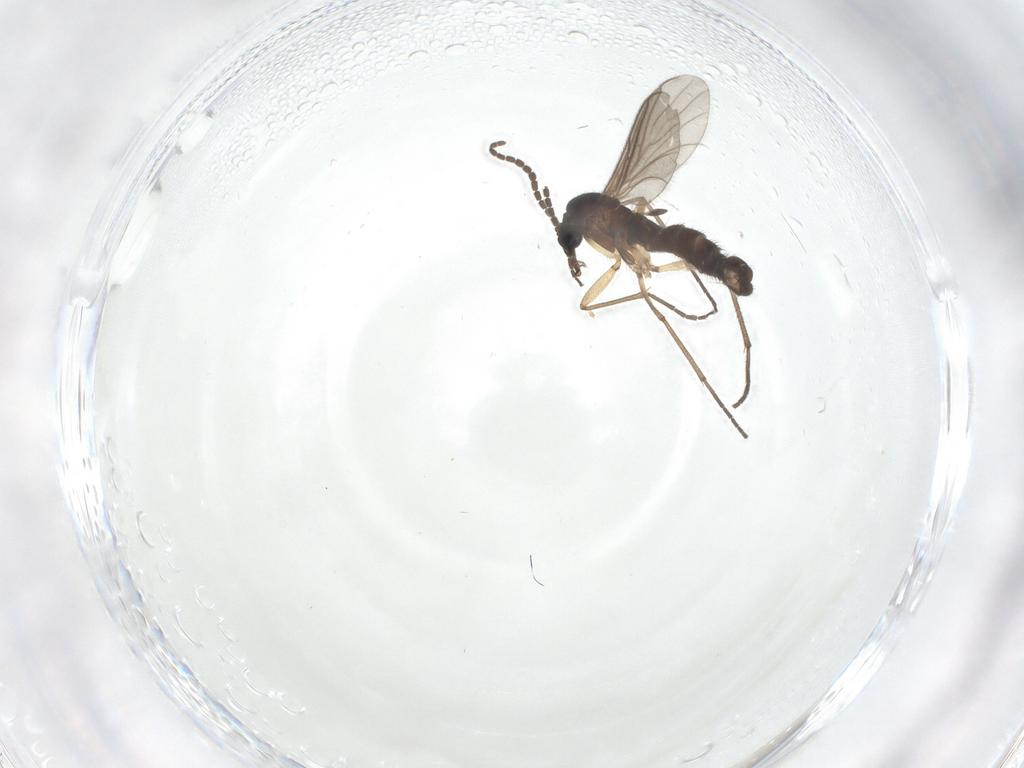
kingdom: Animalia
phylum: Arthropoda
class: Insecta
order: Diptera
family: Sciaridae
